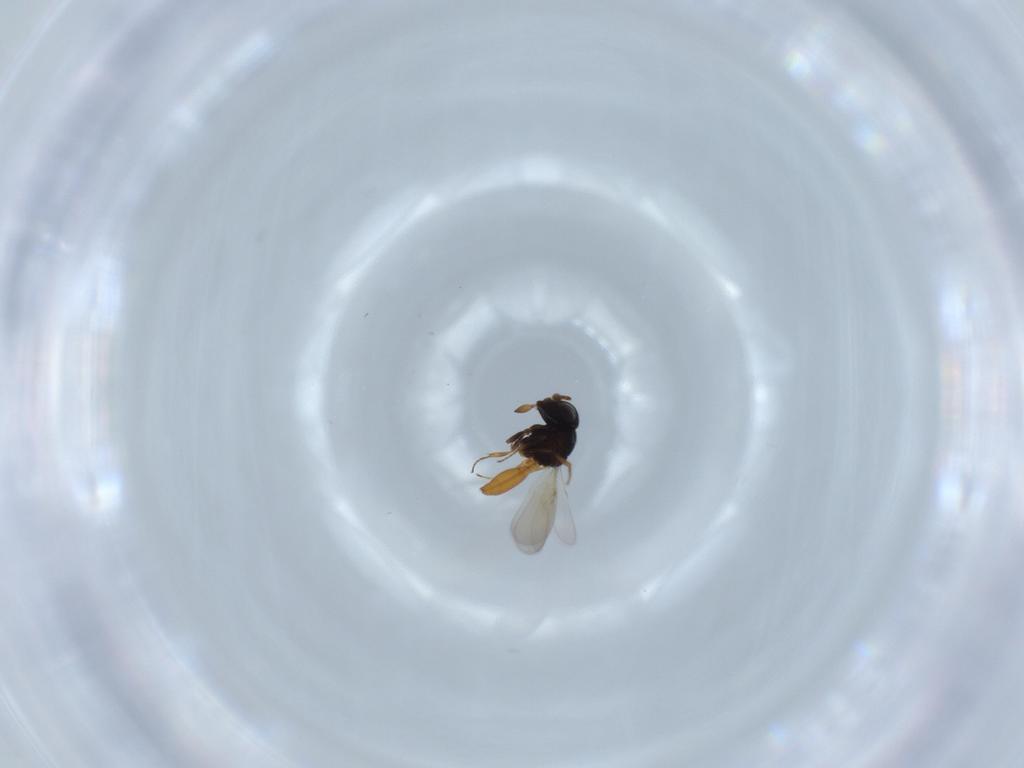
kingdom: Animalia
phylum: Arthropoda
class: Insecta
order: Hymenoptera
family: Scelionidae
